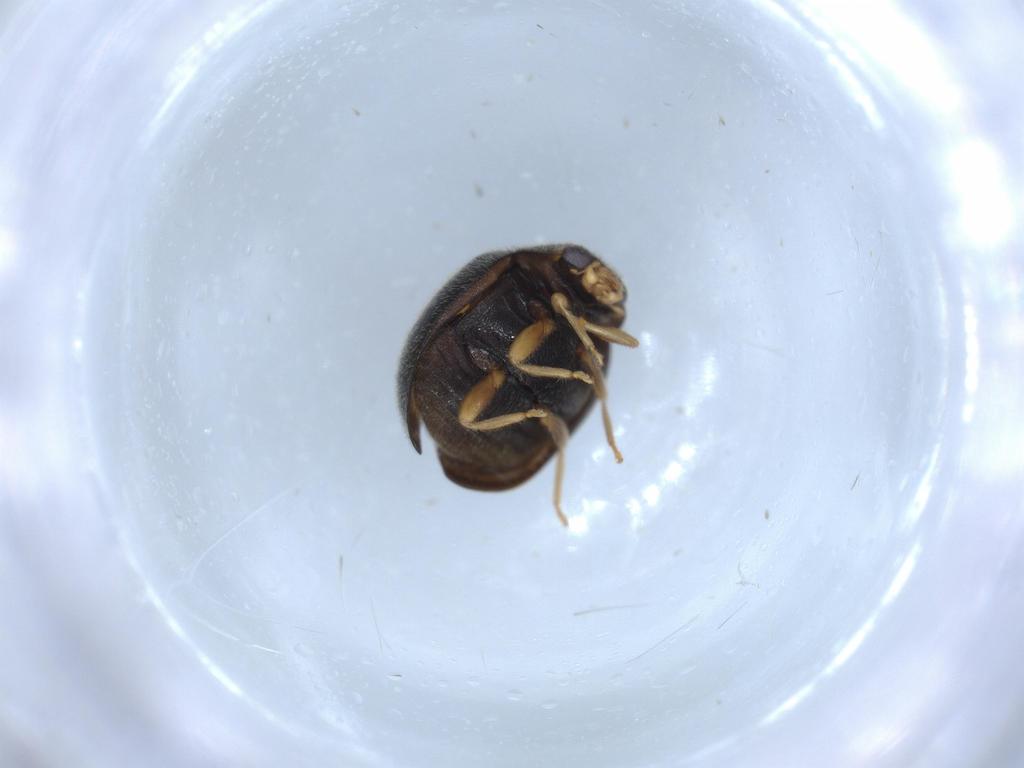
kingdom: Animalia
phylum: Arthropoda
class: Insecta
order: Coleoptera
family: Coccinellidae
